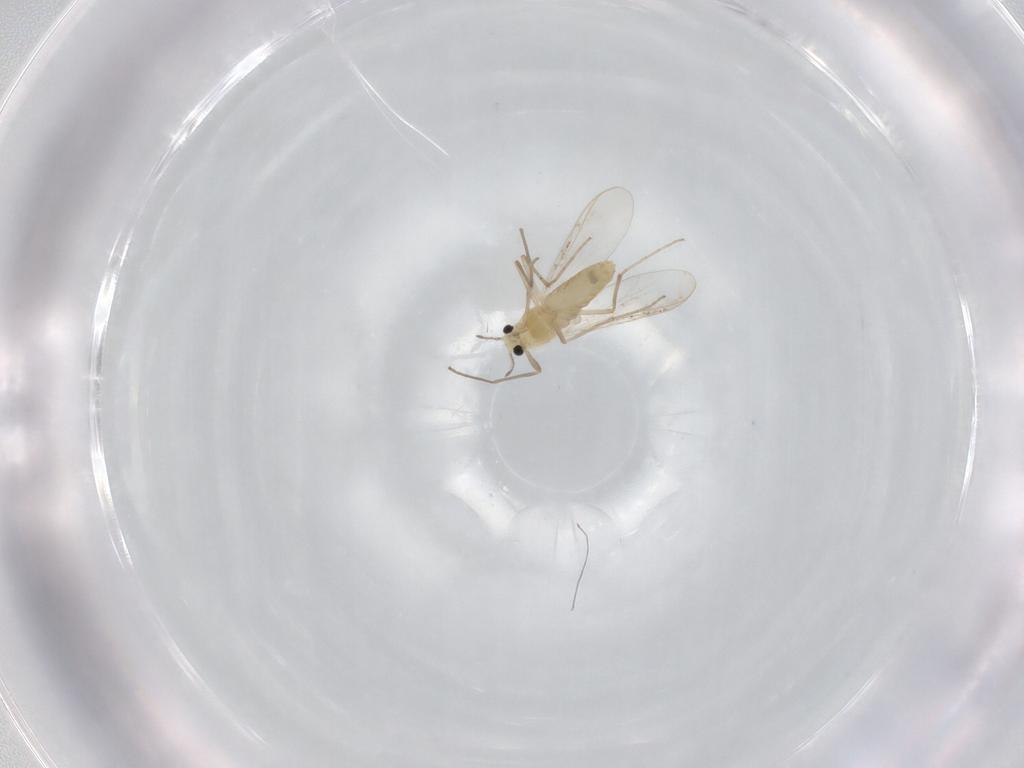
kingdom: Animalia
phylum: Arthropoda
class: Insecta
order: Diptera
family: Chironomidae
